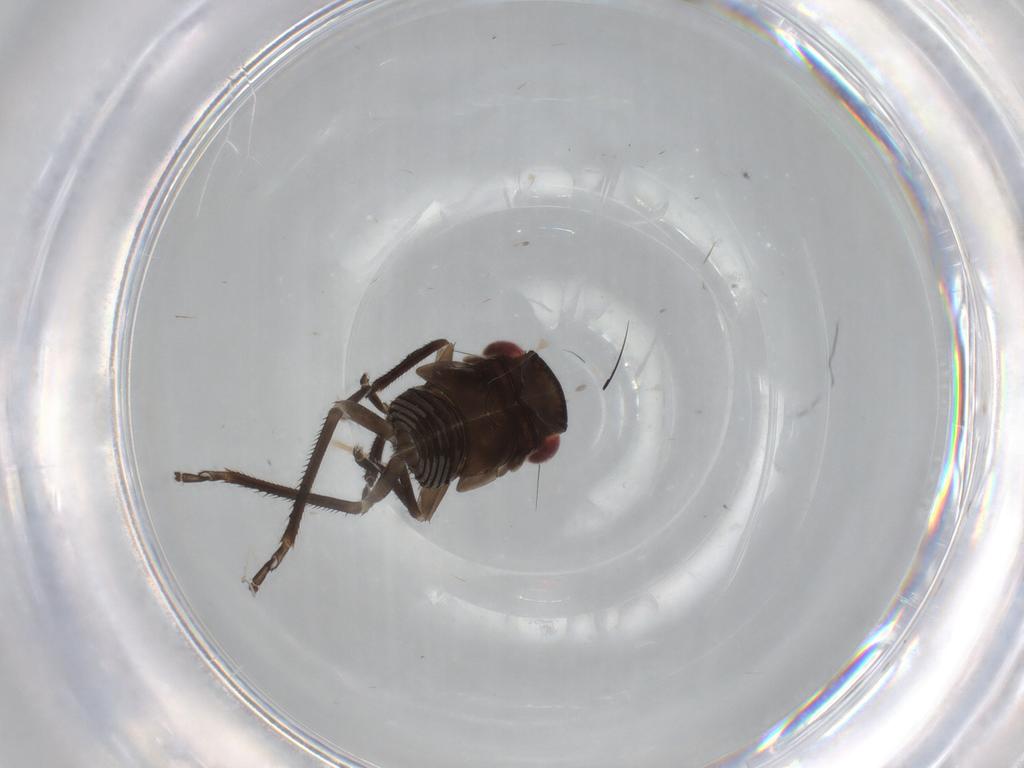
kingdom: Animalia
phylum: Arthropoda
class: Insecta
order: Hemiptera
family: Cicadellidae
